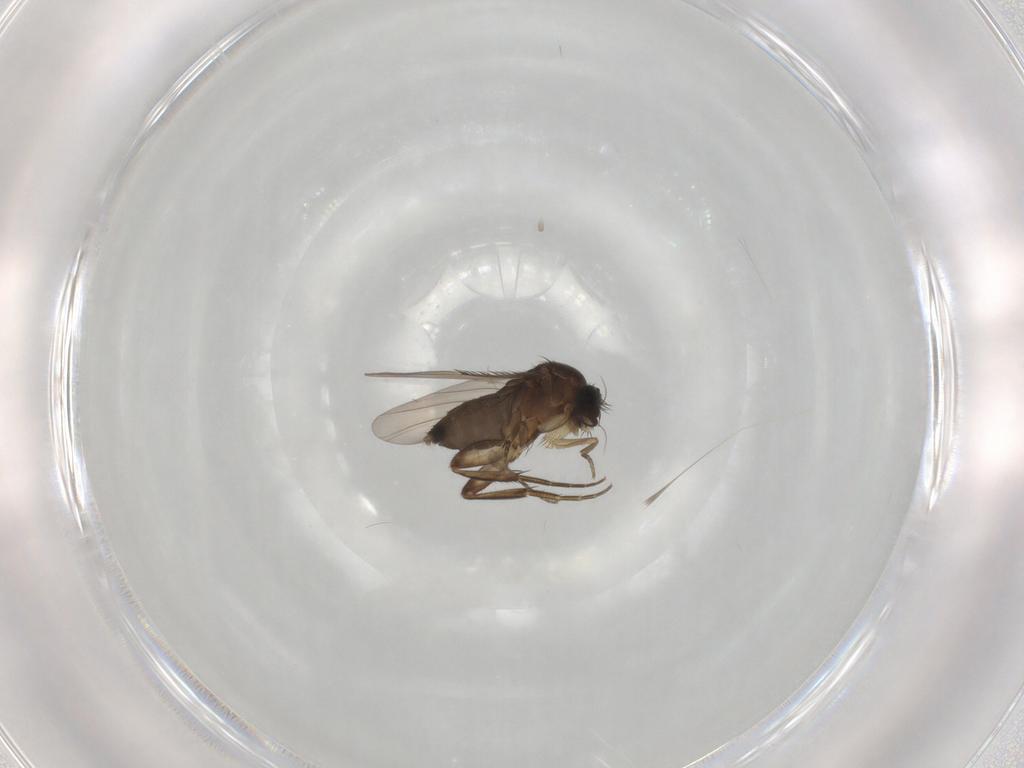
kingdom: Animalia
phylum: Arthropoda
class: Insecta
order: Diptera
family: Phoridae
